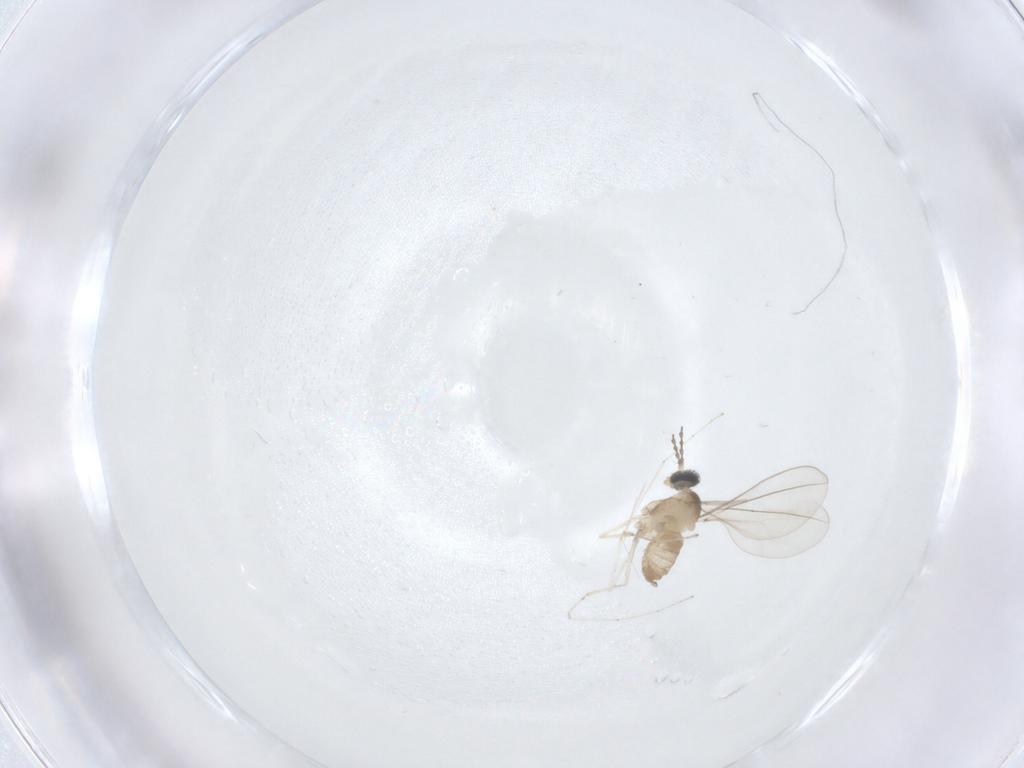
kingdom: Animalia
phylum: Arthropoda
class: Insecta
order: Diptera
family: Cecidomyiidae
